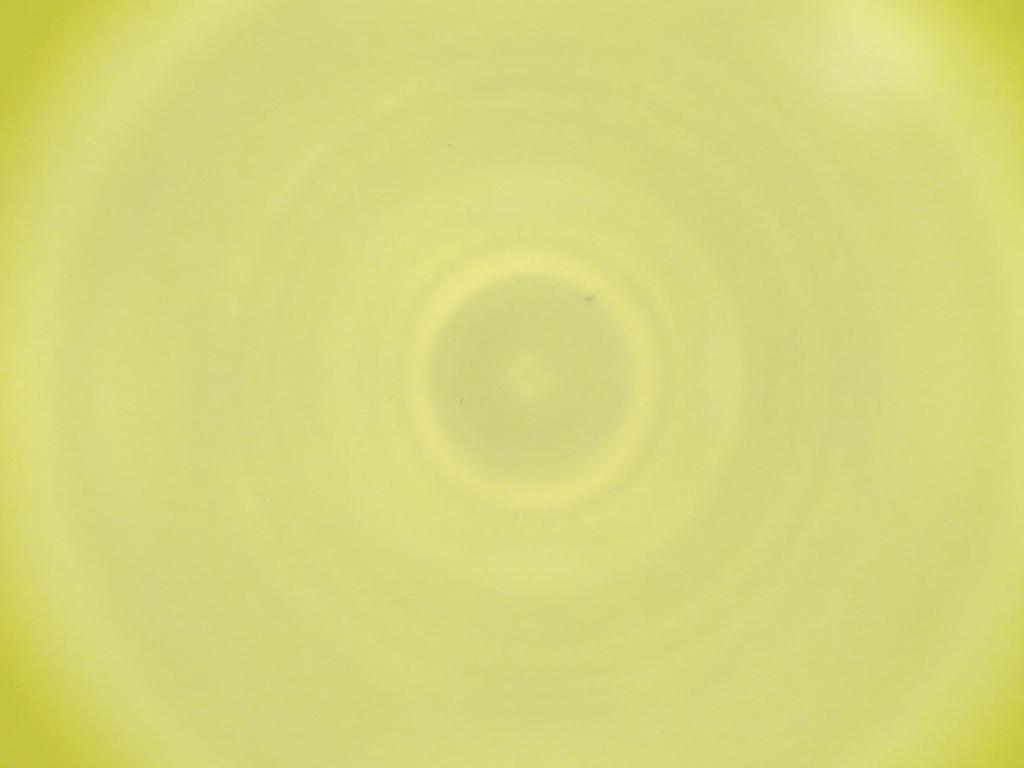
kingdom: Animalia
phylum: Arthropoda
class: Insecta
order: Diptera
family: Cecidomyiidae
